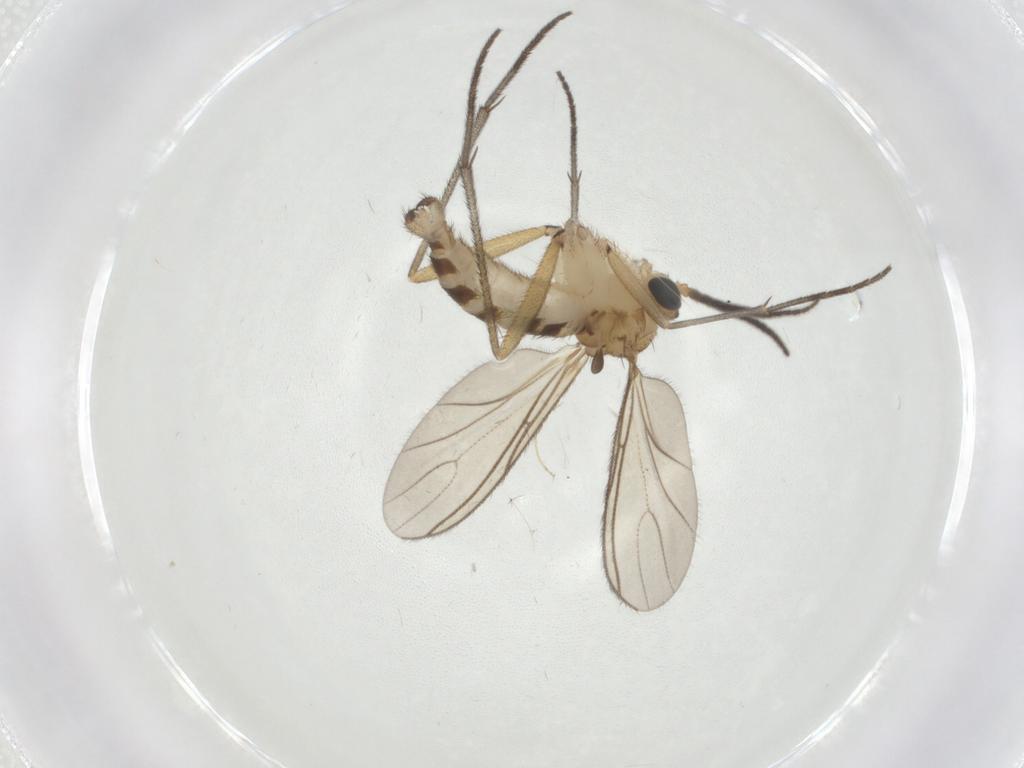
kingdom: Animalia
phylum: Arthropoda
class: Insecta
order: Diptera
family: Sciaridae
